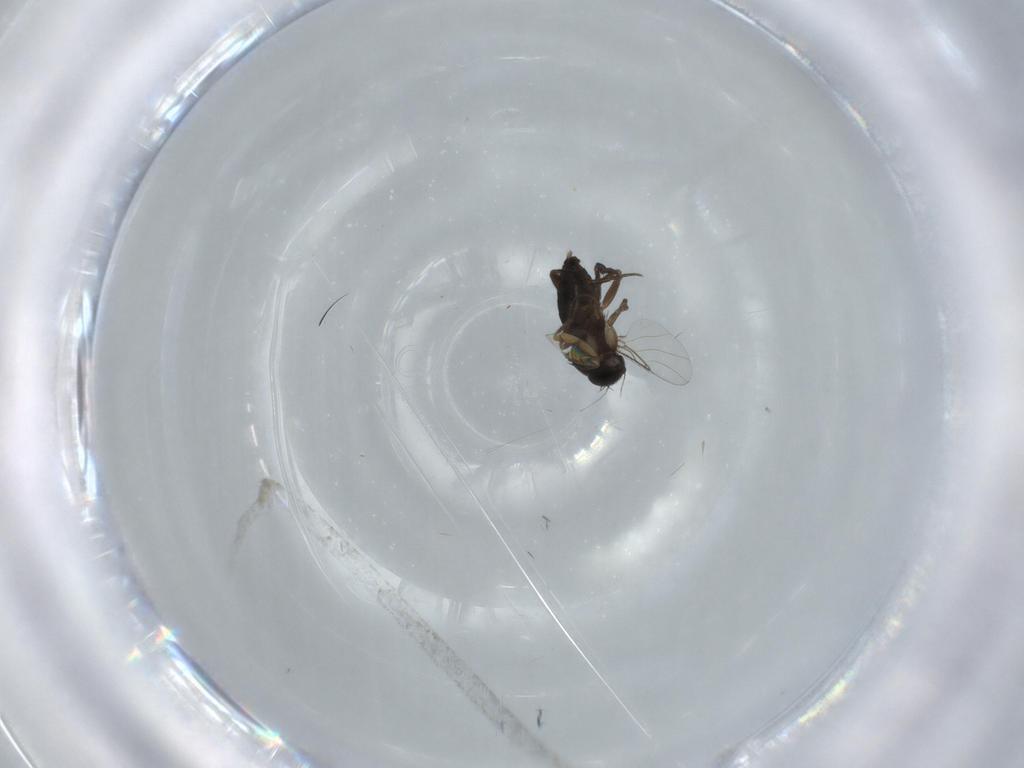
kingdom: Animalia
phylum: Arthropoda
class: Insecta
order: Diptera
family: Phoridae
